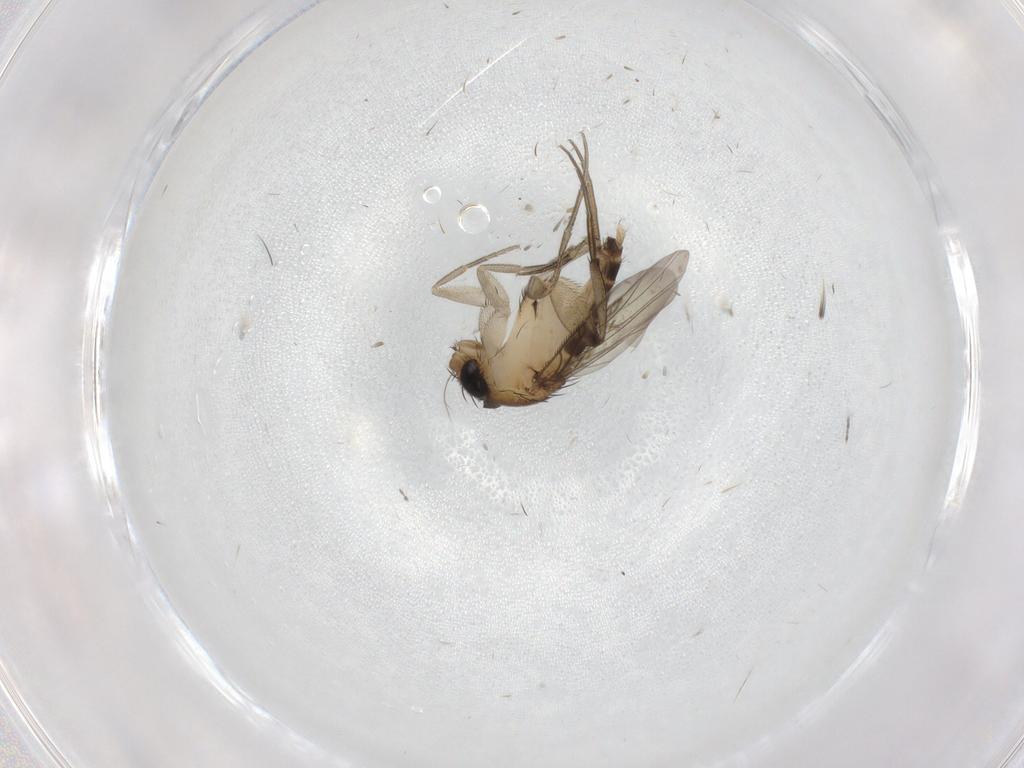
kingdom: Animalia
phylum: Arthropoda
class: Insecta
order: Diptera
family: Phoridae
